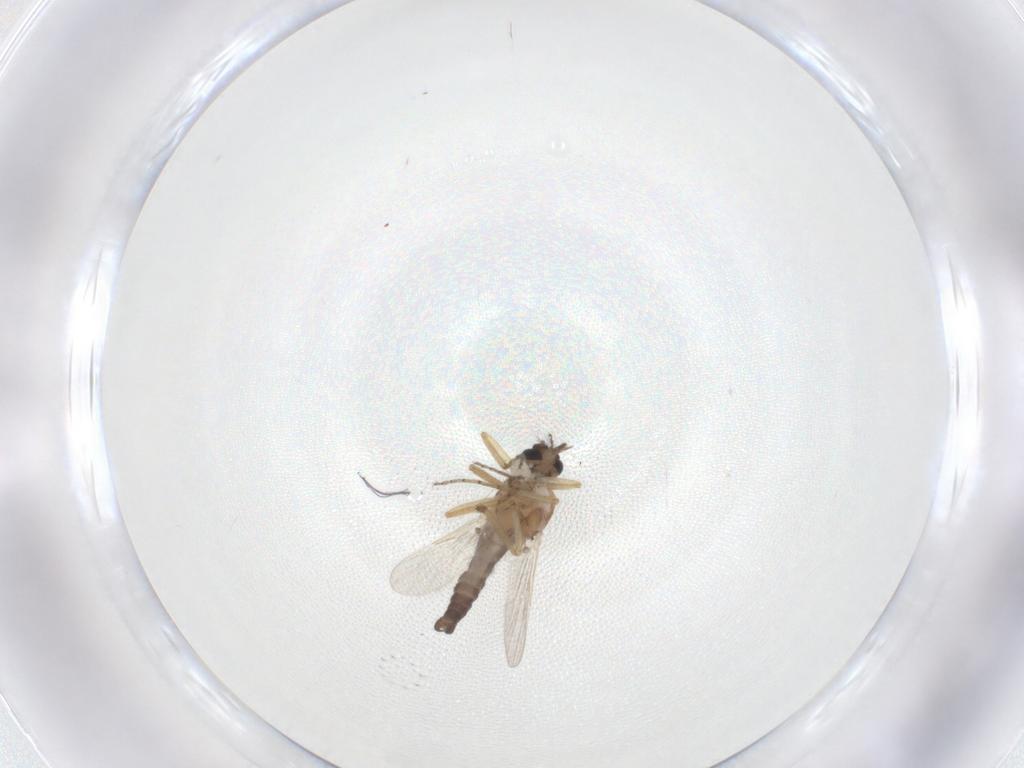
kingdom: Animalia
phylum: Arthropoda
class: Insecta
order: Diptera
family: Ceratopogonidae
